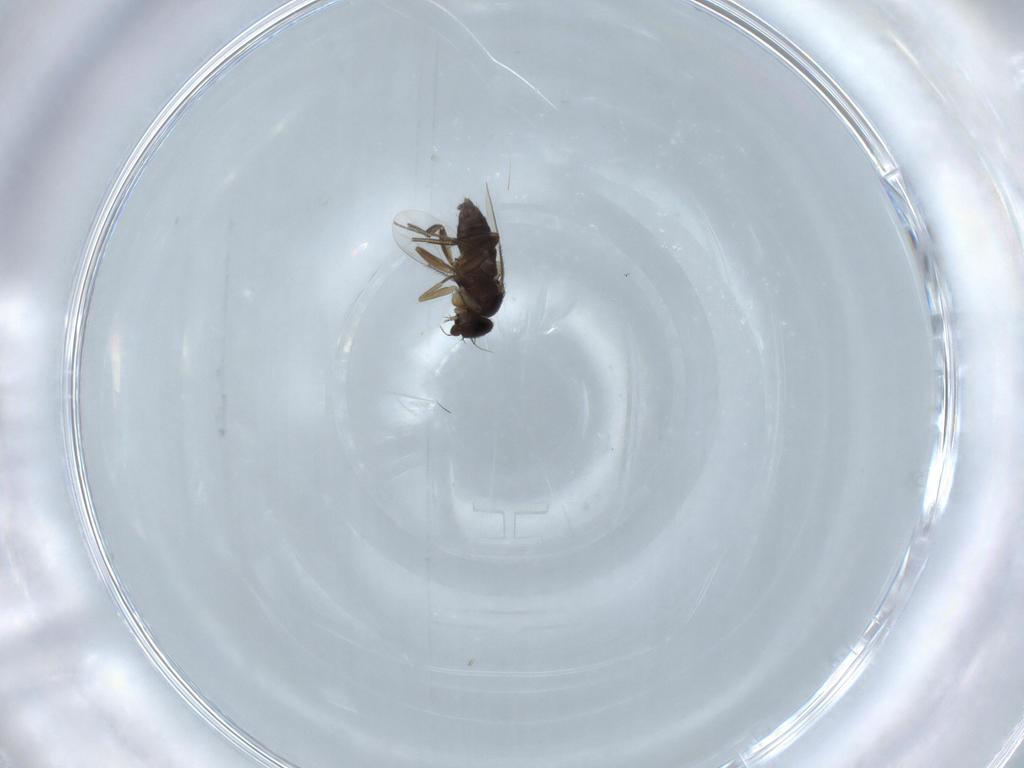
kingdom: Animalia
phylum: Arthropoda
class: Insecta
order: Diptera
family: Phoridae
